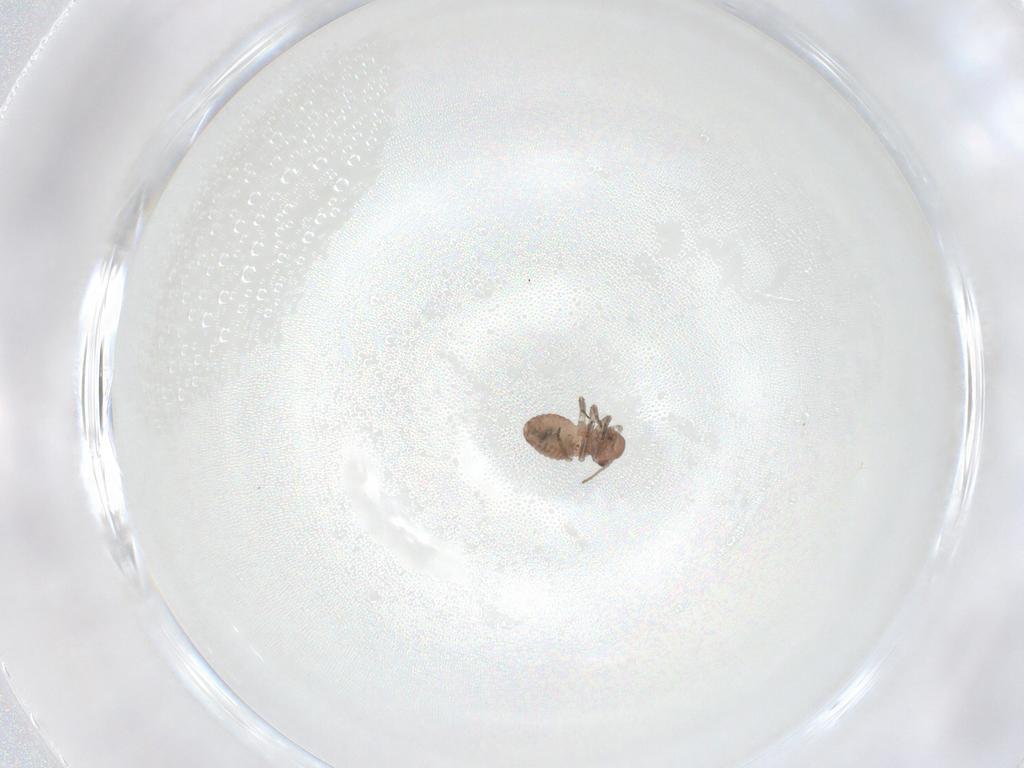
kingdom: Animalia
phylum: Arthropoda
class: Insecta
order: Psocodea
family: Psocidae
